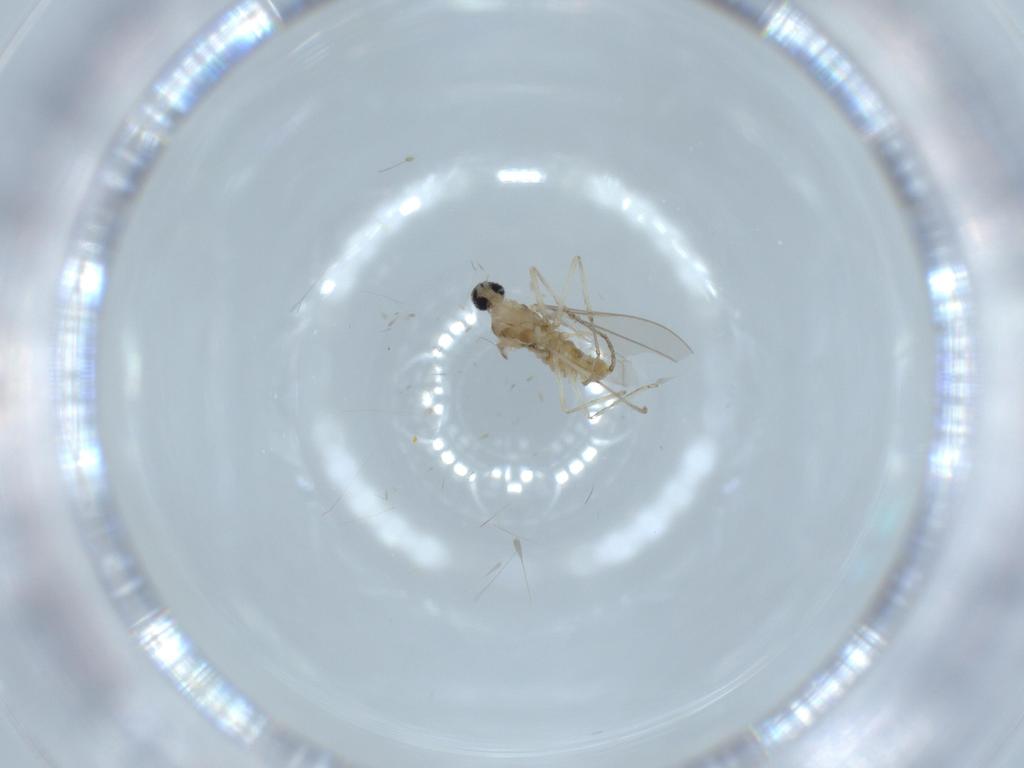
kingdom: Animalia
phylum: Arthropoda
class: Insecta
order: Diptera
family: Cecidomyiidae
